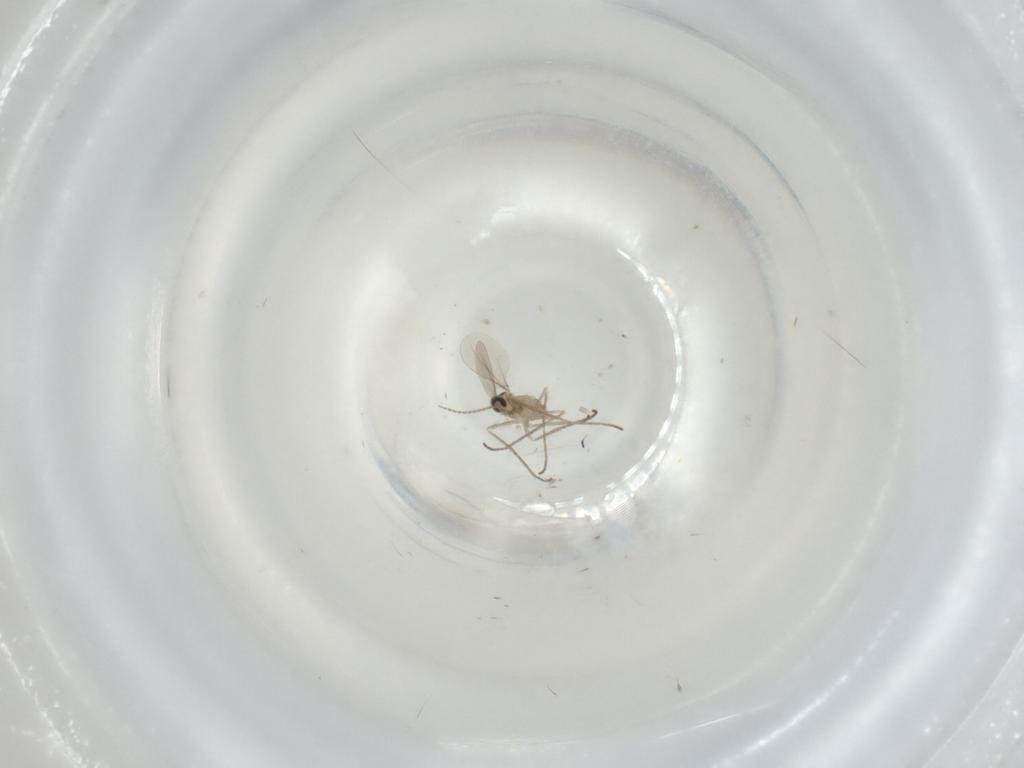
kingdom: Animalia
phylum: Arthropoda
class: Insecta
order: Diptera
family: Cecidomyiidae
